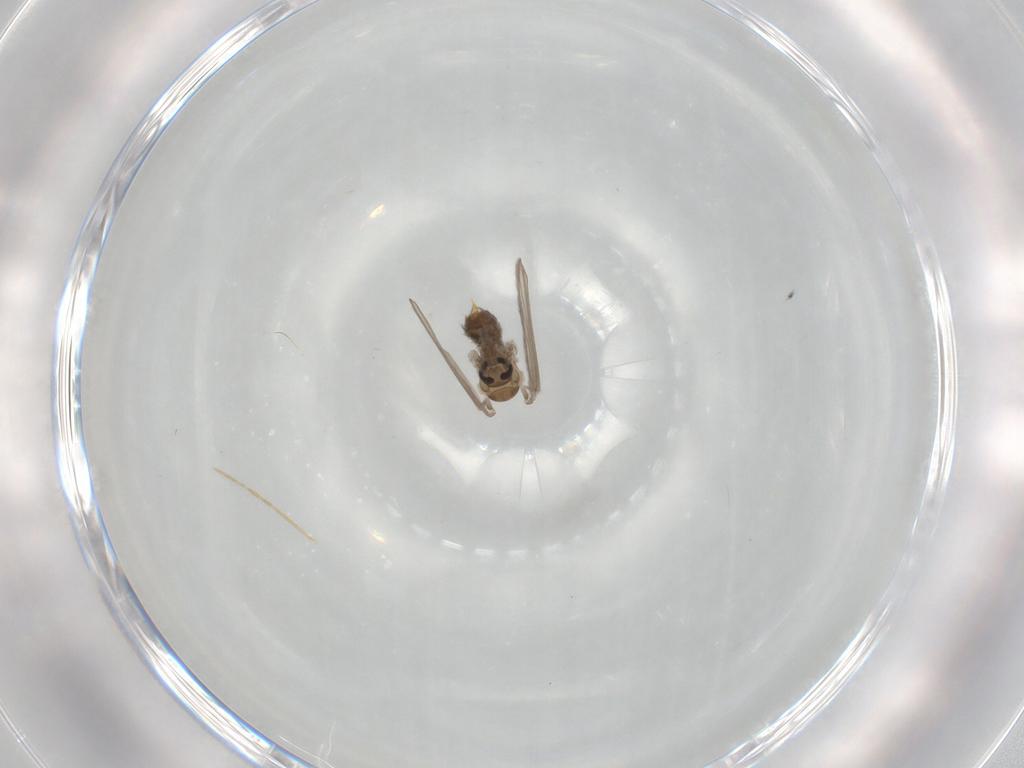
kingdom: Animalia
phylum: Arthropoda
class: Insecta
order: Diptera
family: Psychodidae
